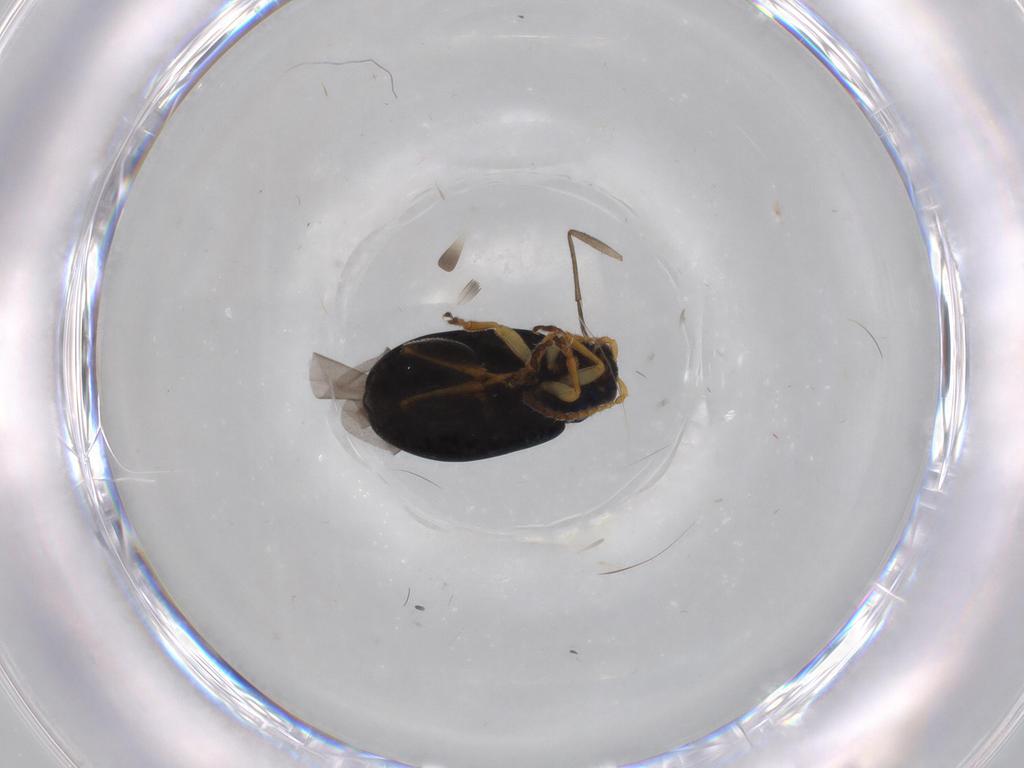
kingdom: Animalia
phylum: Arthropoda
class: Insecta
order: Coleoptera
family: Chrysomelidae
